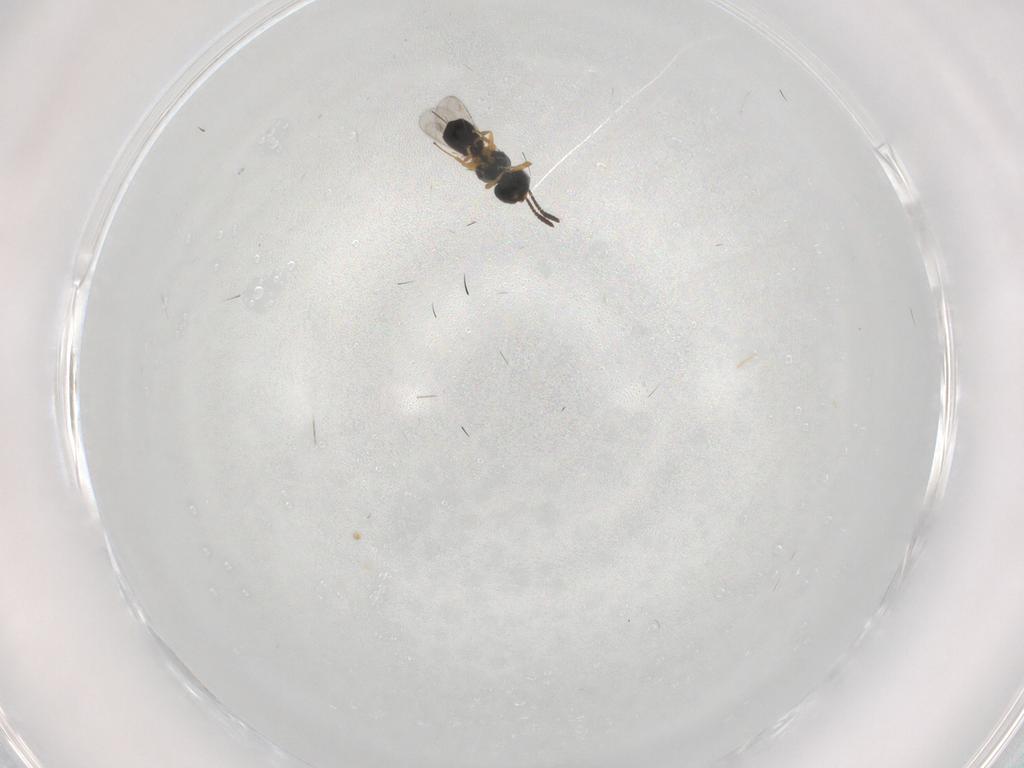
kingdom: Animalia
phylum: Arthropoda
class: Insecta
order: Hymenoptera
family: Scelionidae
